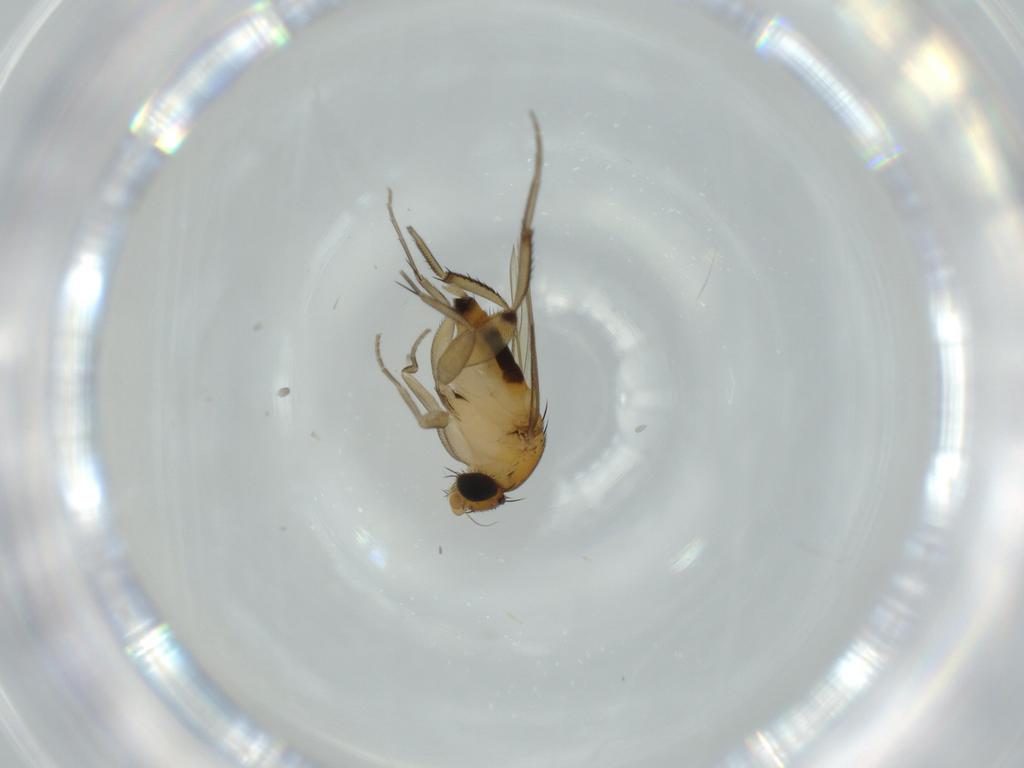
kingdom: Animalia
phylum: Arthropoda
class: Insecta
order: Diptera
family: Phoridae
